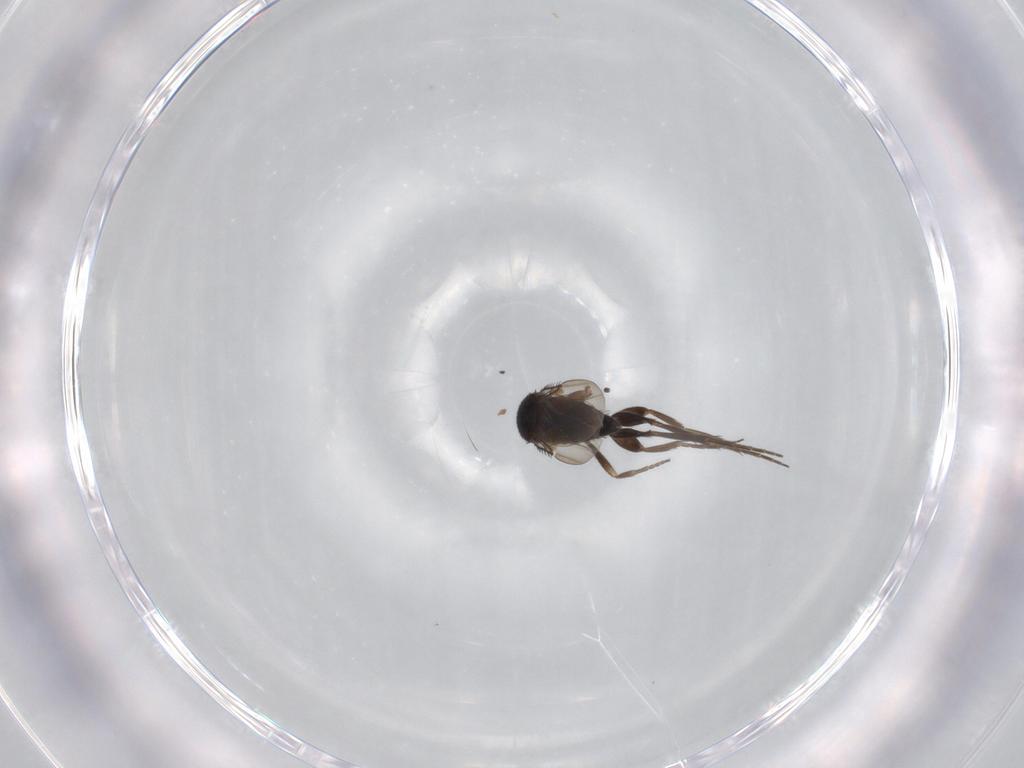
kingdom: Animalia
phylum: Arthropoda
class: Insecta
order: Diptera
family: Phoridae
